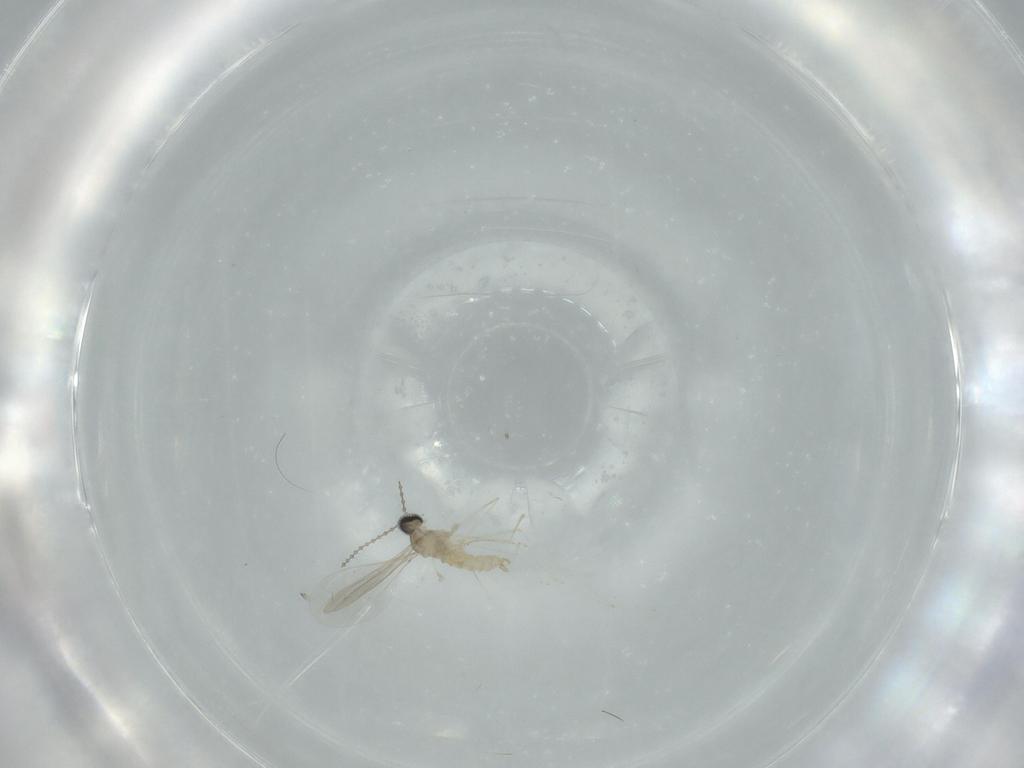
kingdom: Animalia
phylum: Arthropoda
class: Insecta
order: Diptera
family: Cecidomyiidae
